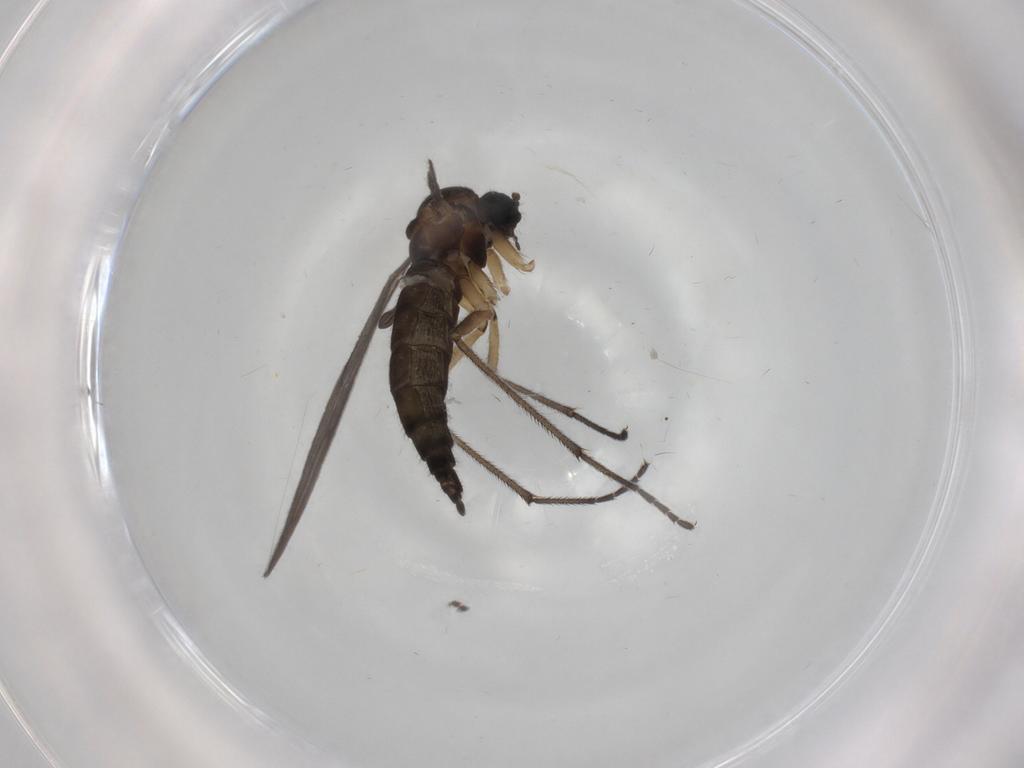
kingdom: Animalia
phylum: Arthropoda
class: Insecta
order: Diptera
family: Sciaridae
